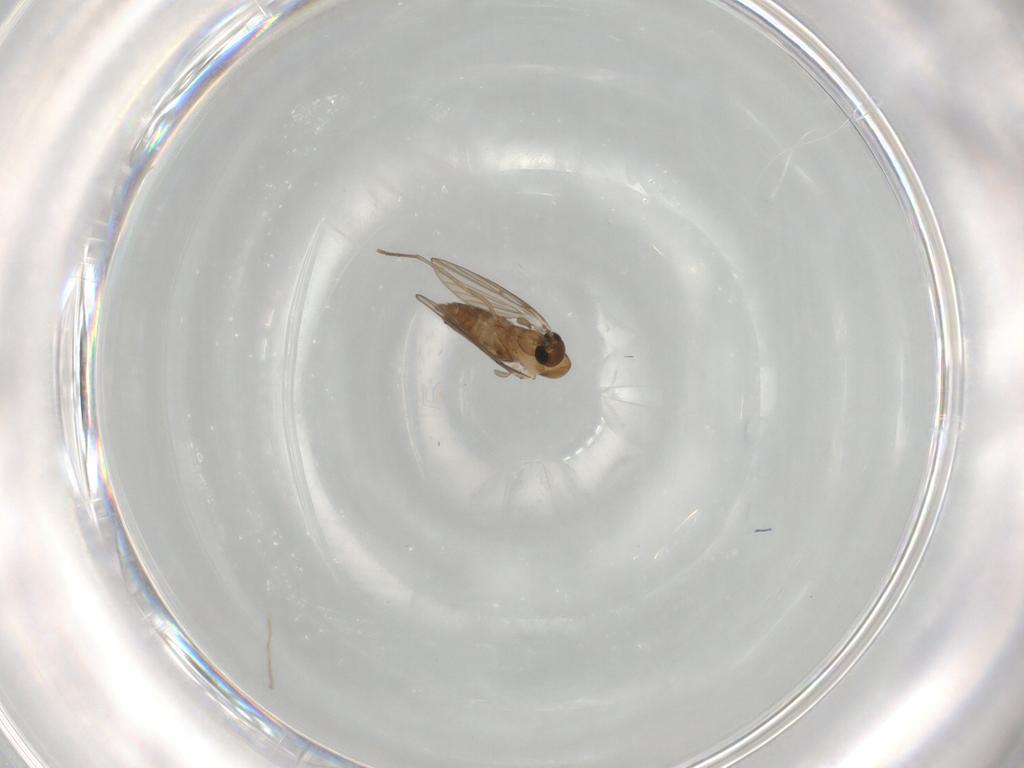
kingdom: Animalia
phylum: Arthropoda
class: Insecta
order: Diptera
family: Psychodidae
